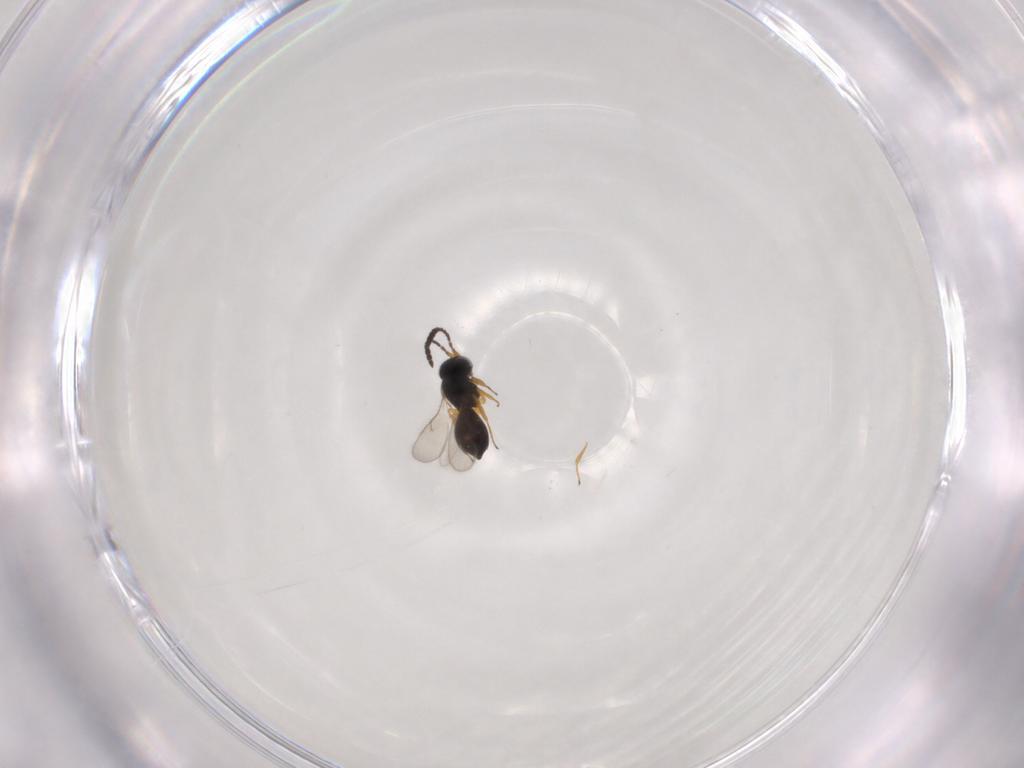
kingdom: Animalia
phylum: Arthropoda
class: Insecta
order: Hymenoptera
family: Scelionidae
